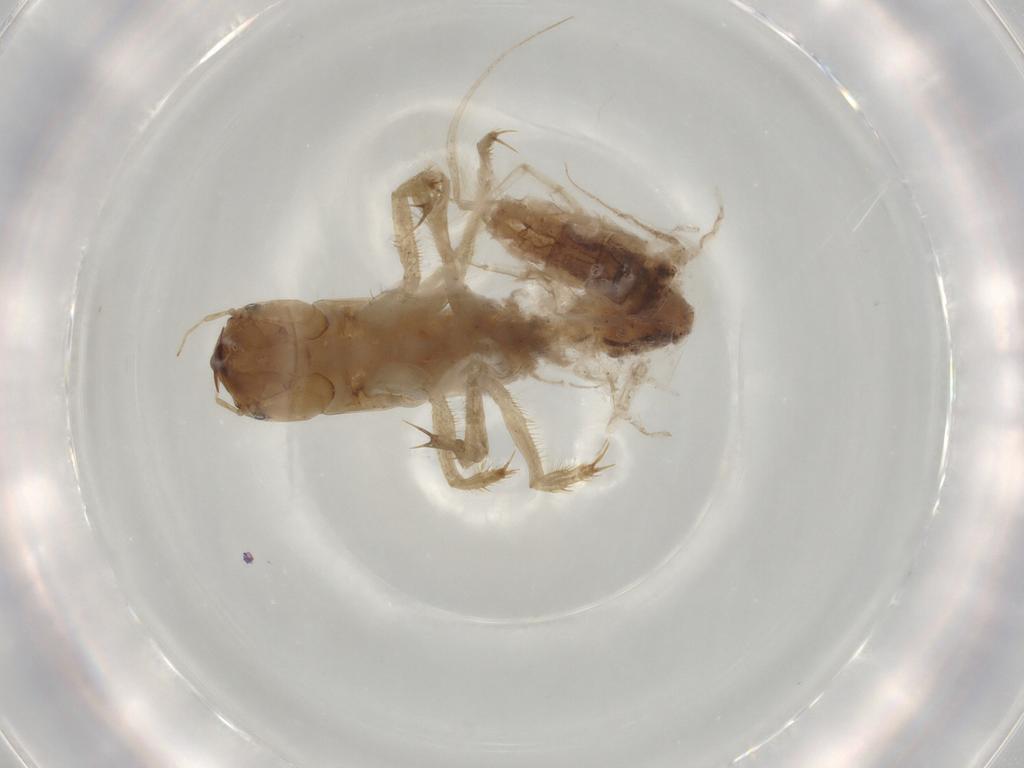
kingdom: Animalia
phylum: Arthropoda
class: Insecta
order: Megaloptera
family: Sialidae
